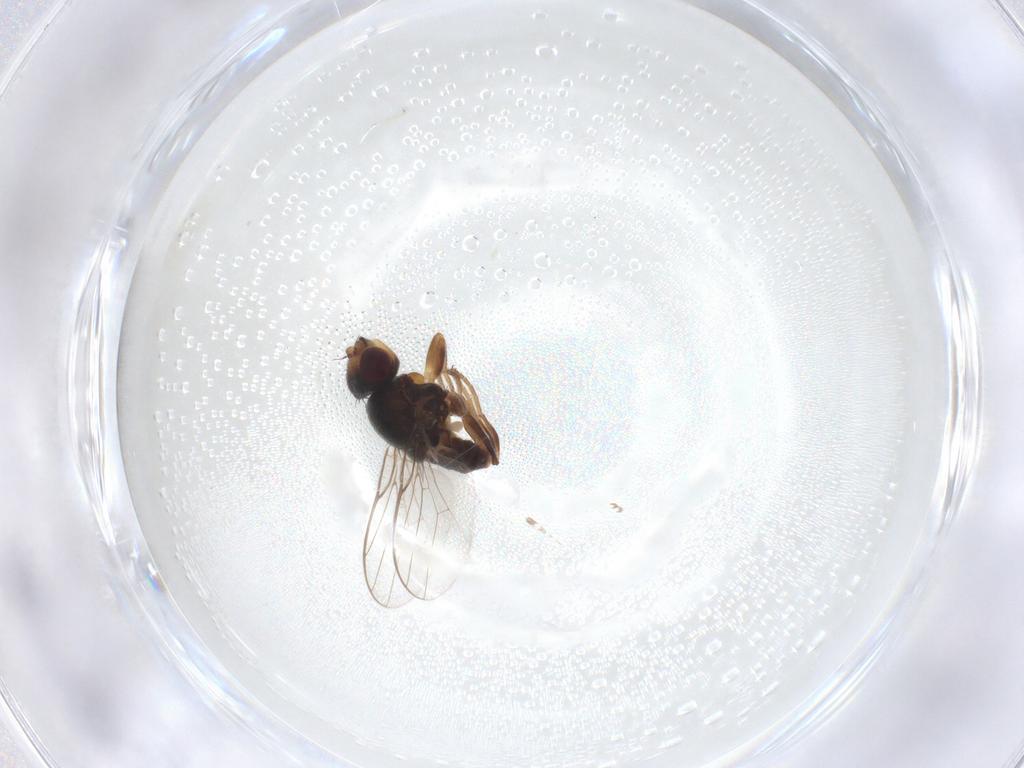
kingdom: Animalia
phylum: Arthropoda
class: Insecta
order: Diptera
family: Chloropidae
